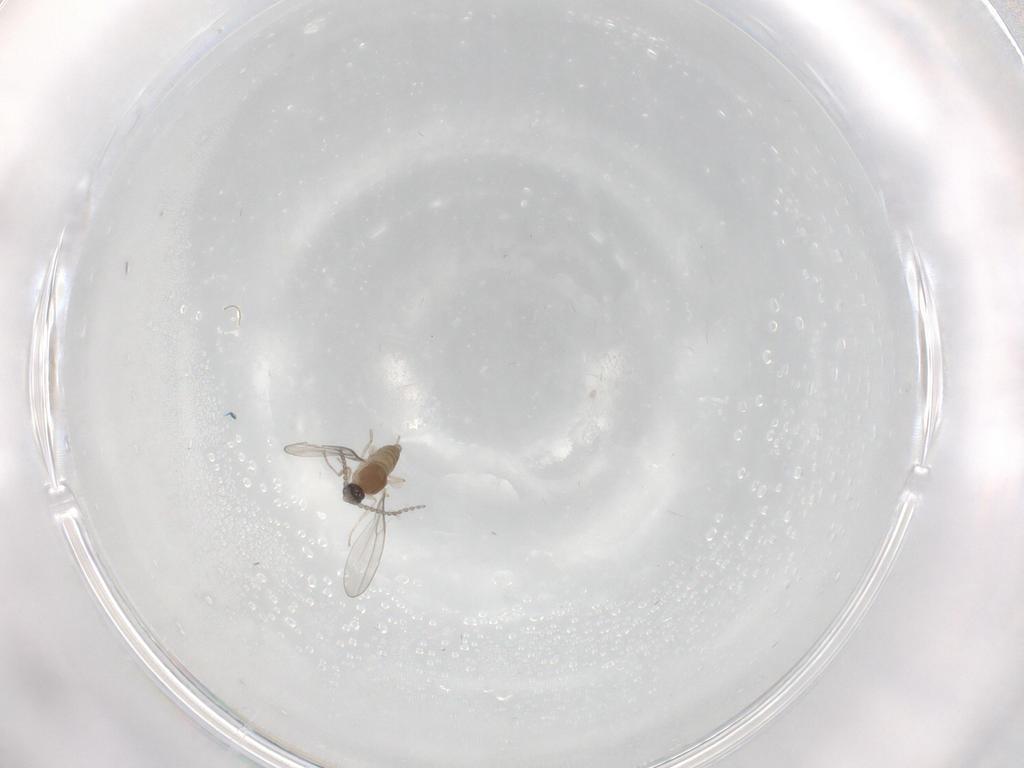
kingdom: Animalia
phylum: Arthropoda
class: Insecta
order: Diptera
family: Cecidomyiidae
